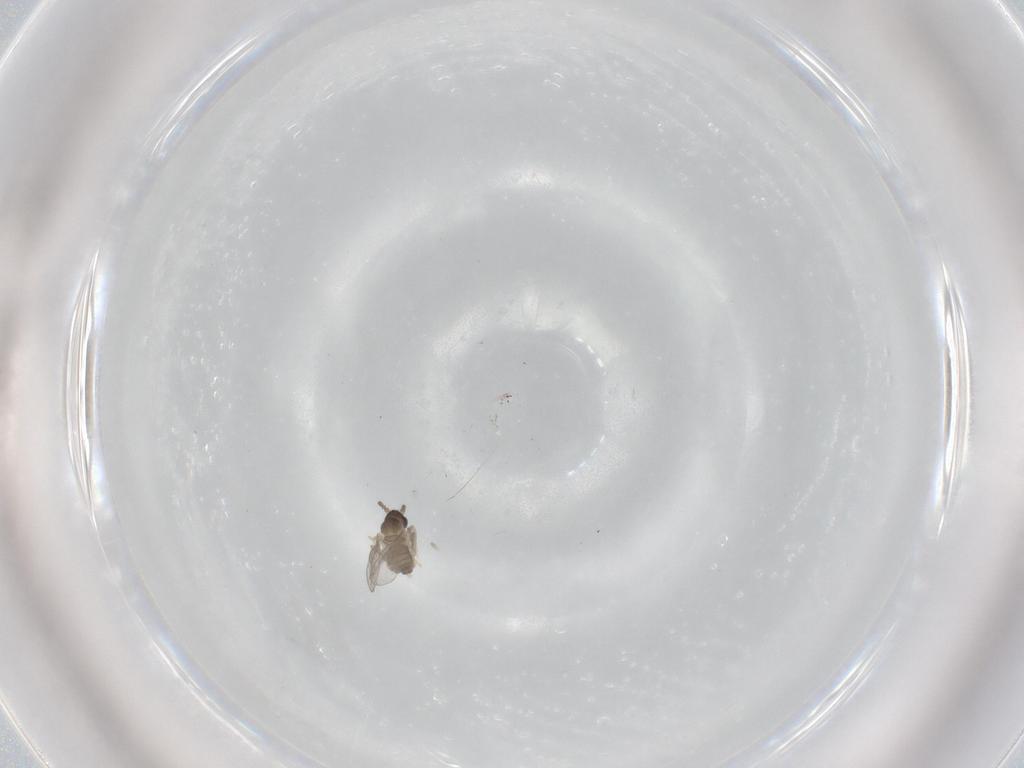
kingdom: Animalia
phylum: Arthropoda
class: Insecta
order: Diptera
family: Cecidomyiidae
